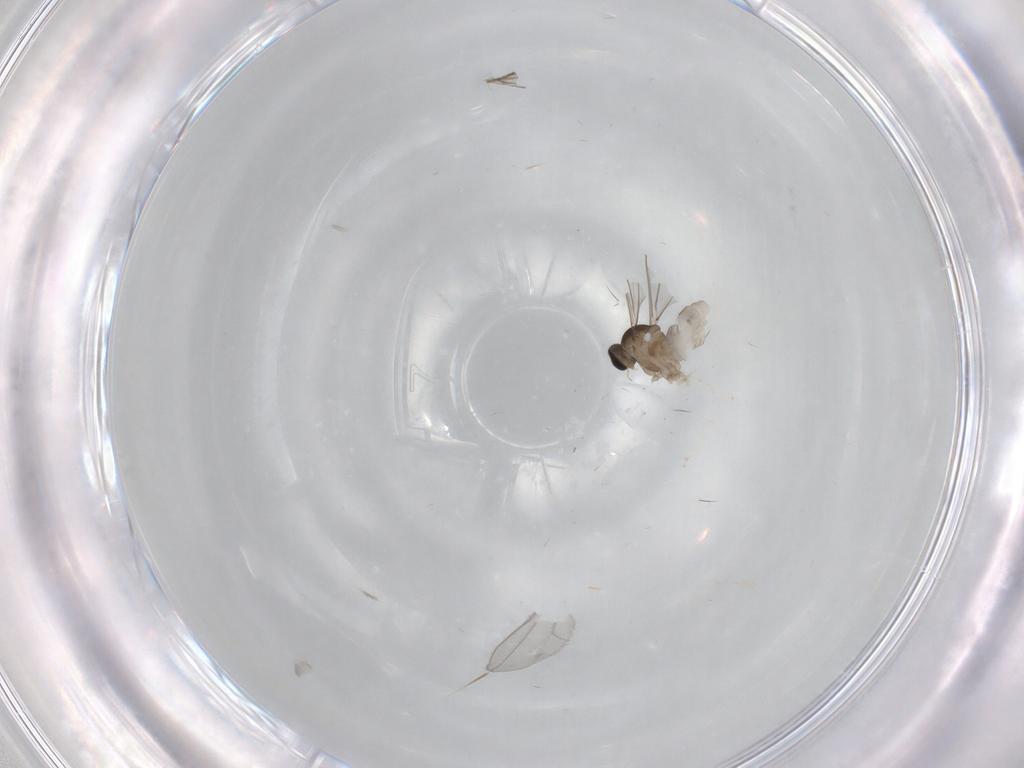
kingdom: Animalia
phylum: Arthropoda
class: Insecta
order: Diptera
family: Cecidomyiidae
